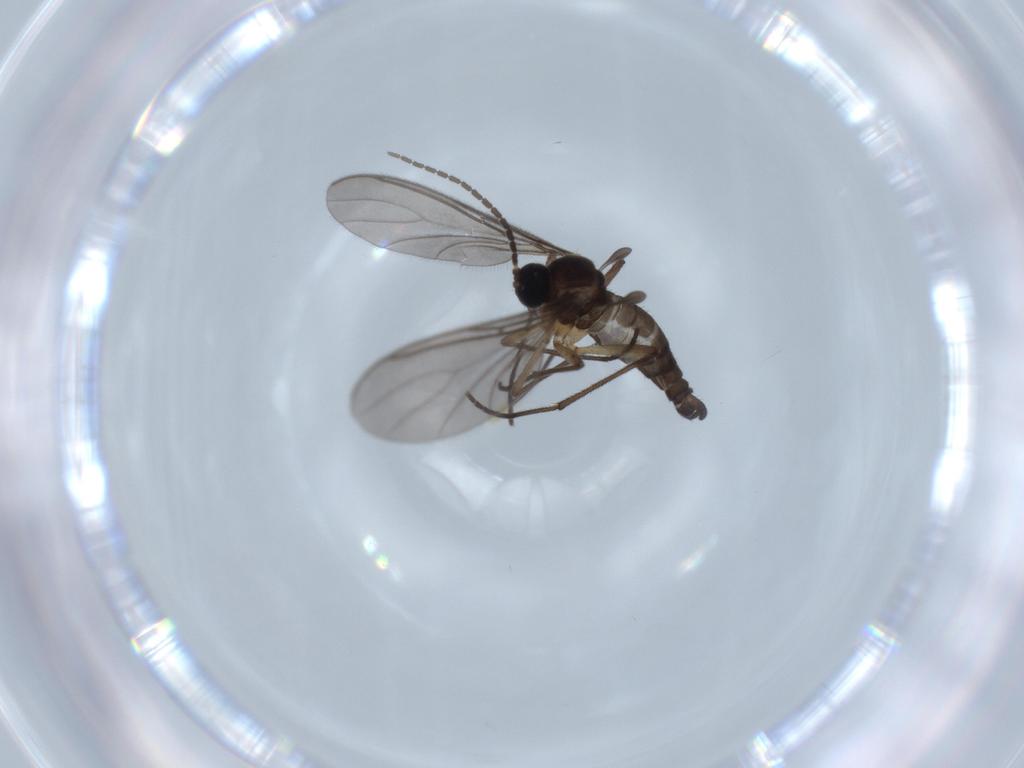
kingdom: Animalia
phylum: Arthropoda
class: Insecta
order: Diptera
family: Sciaridae
